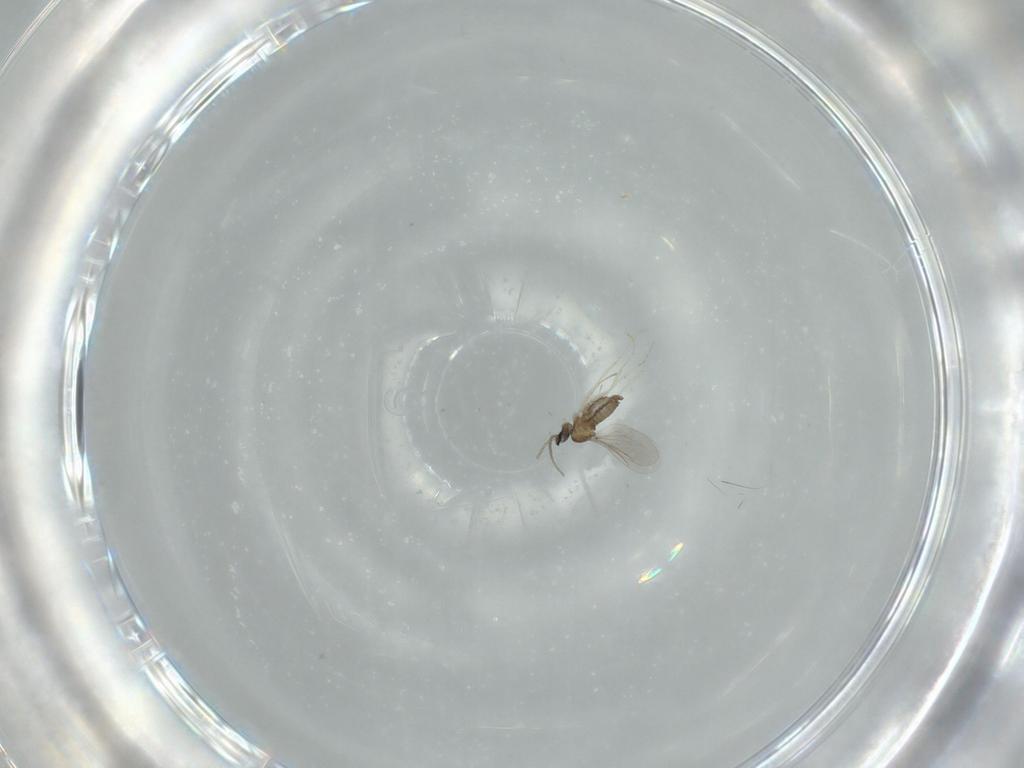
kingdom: Animalia
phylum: Arthropoda
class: Insecta
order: Diptera
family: Cecidomyiidae
